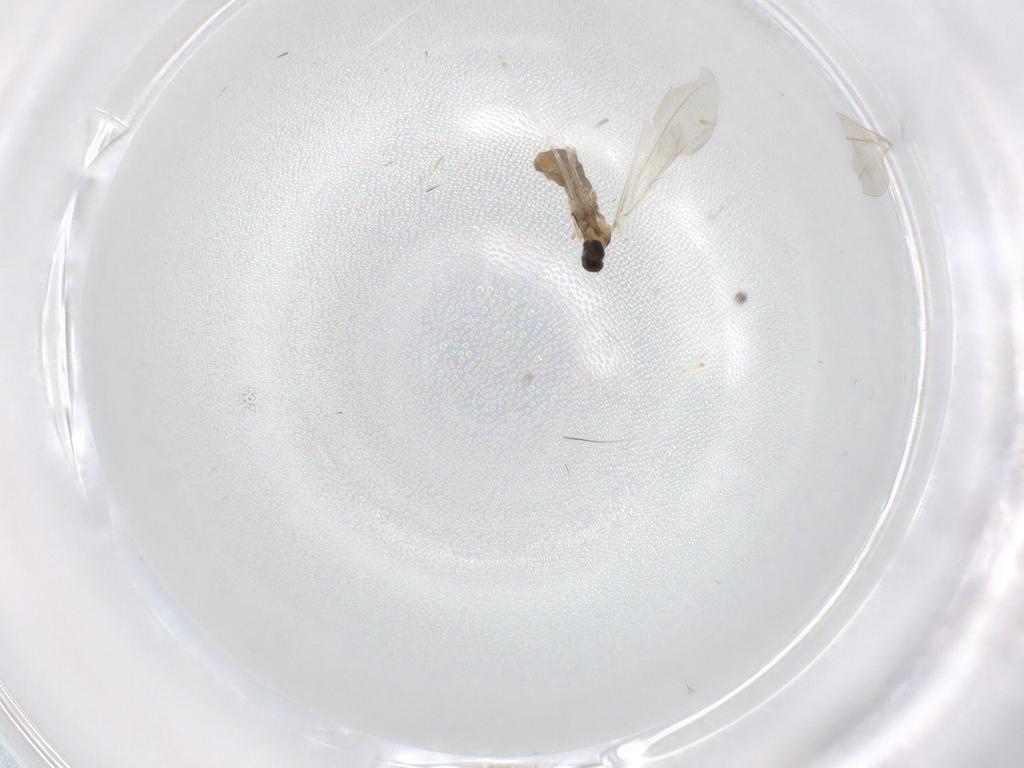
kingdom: Animalia
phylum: Arthropoda
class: Insecta
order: Diptera
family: Cecidomyiidae
